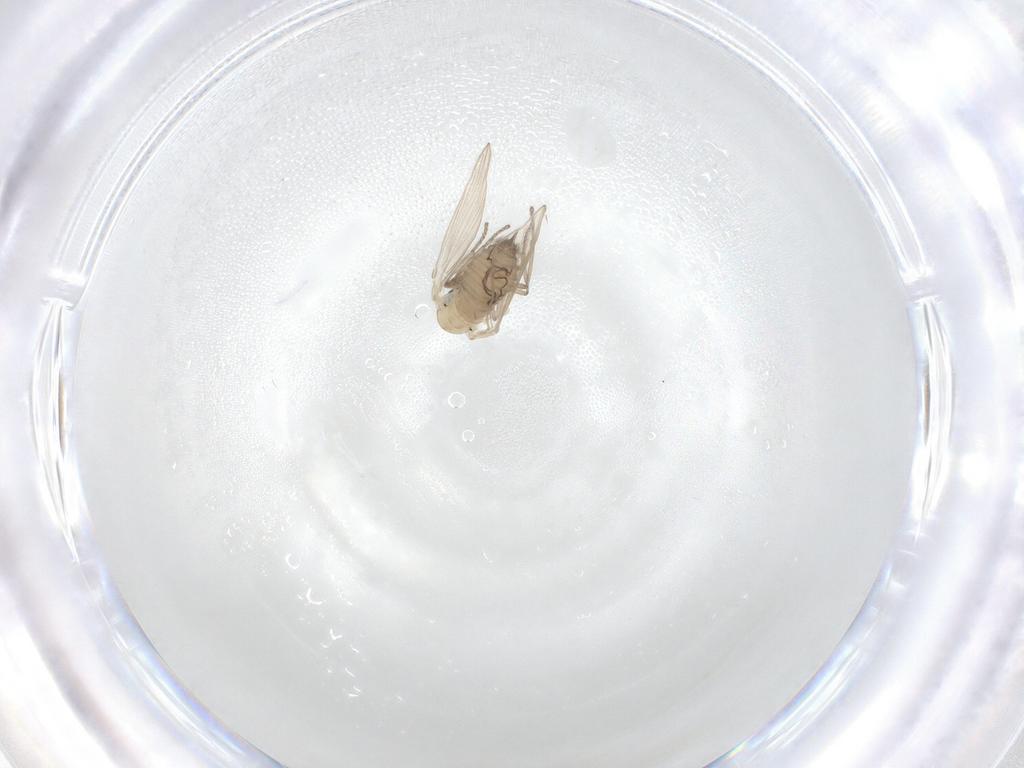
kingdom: Animalia
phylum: Arthropoda
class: Insecta
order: Diptera
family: Psychodidae
